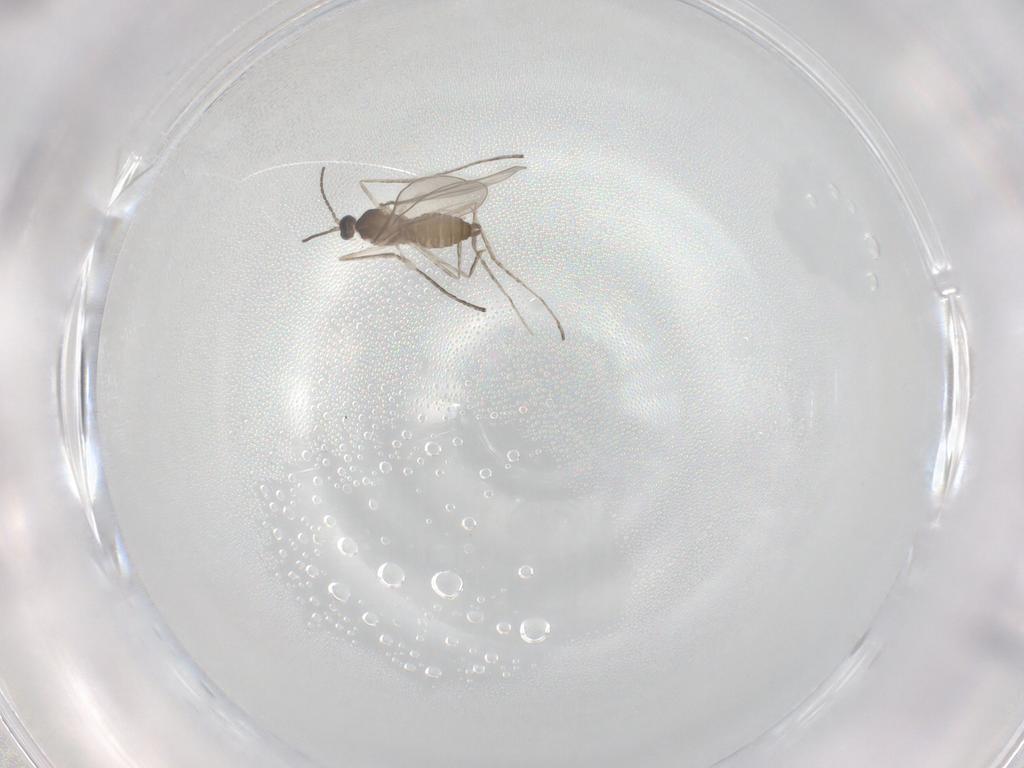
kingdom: Animalia
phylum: Arthropoda
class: Insecta
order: Diptera
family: Cecidomyiidae
